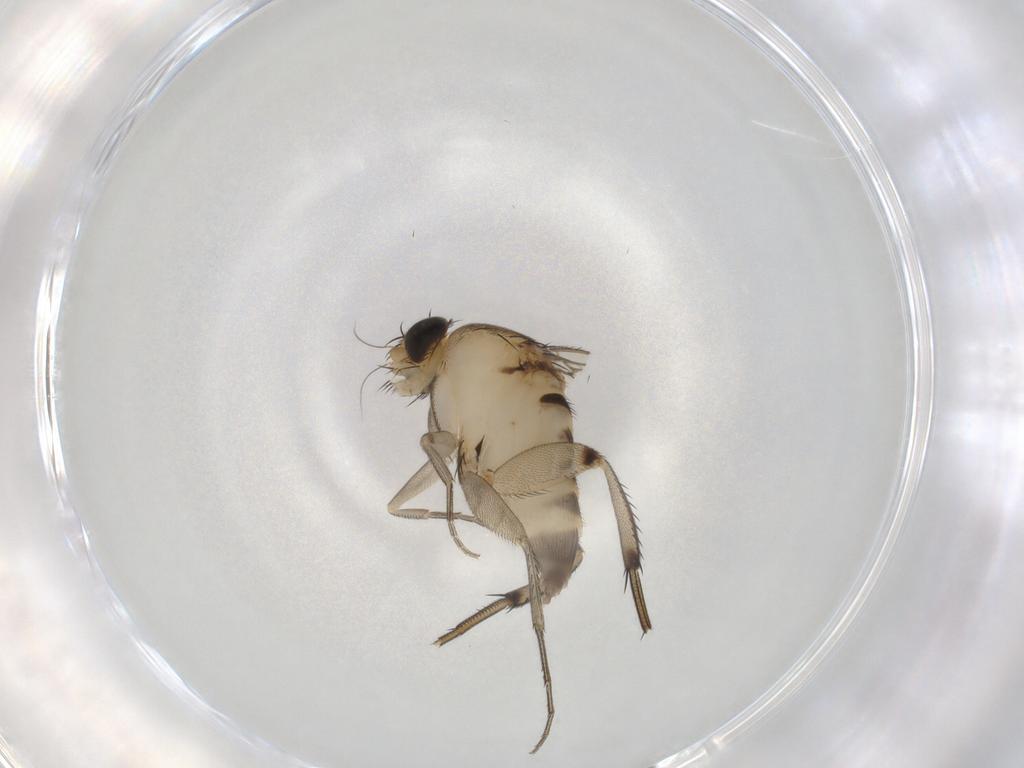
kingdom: Animalia
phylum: Arthropoda
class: Insecta
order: Diptera
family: Phoridae
